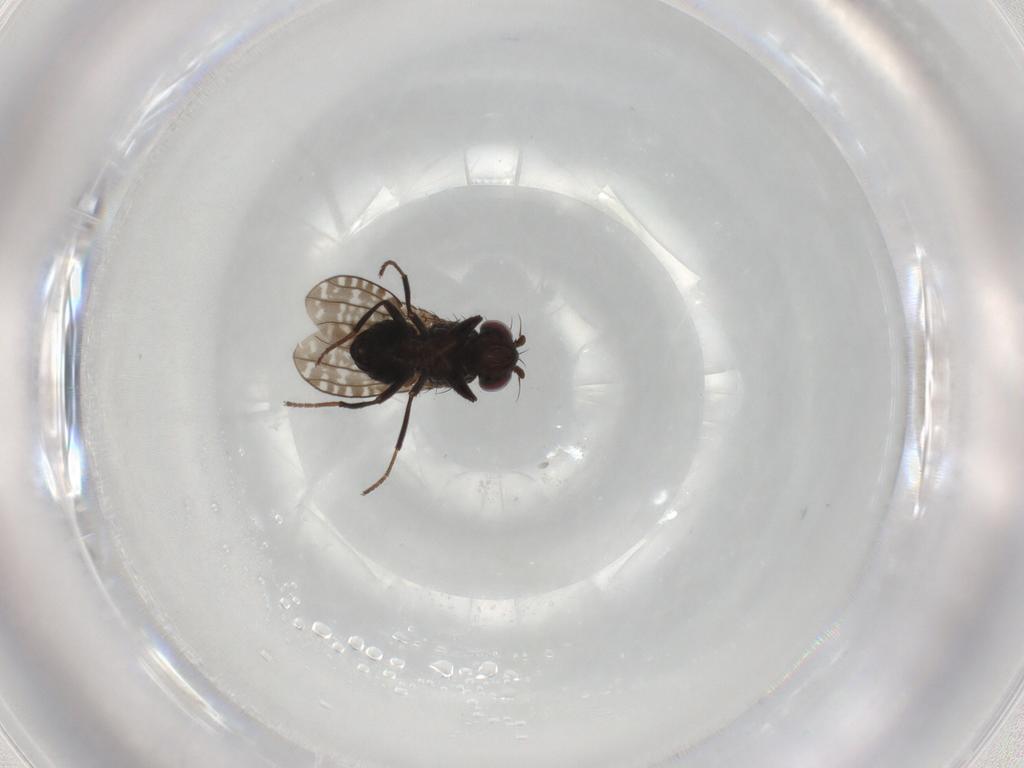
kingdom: Animalia
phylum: Arthropoda
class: Insecta
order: Diptera
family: Ephydridae
